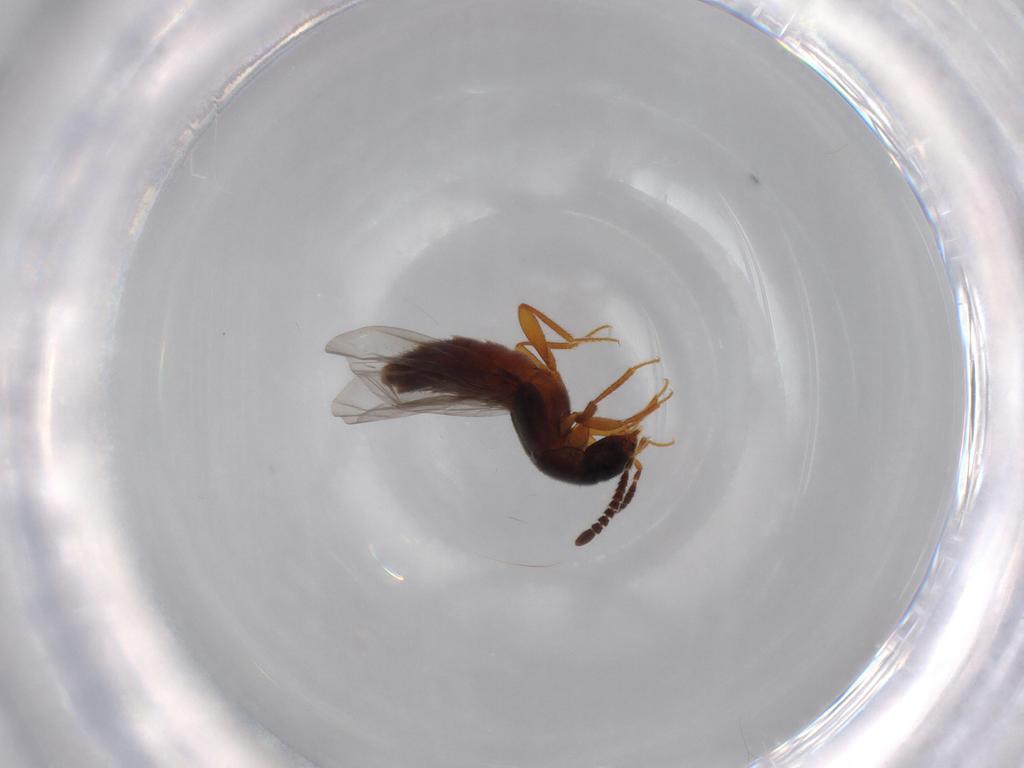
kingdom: Animalia
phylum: Arthropoda
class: Insecta
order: Coleoptera
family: Staphylinidae
